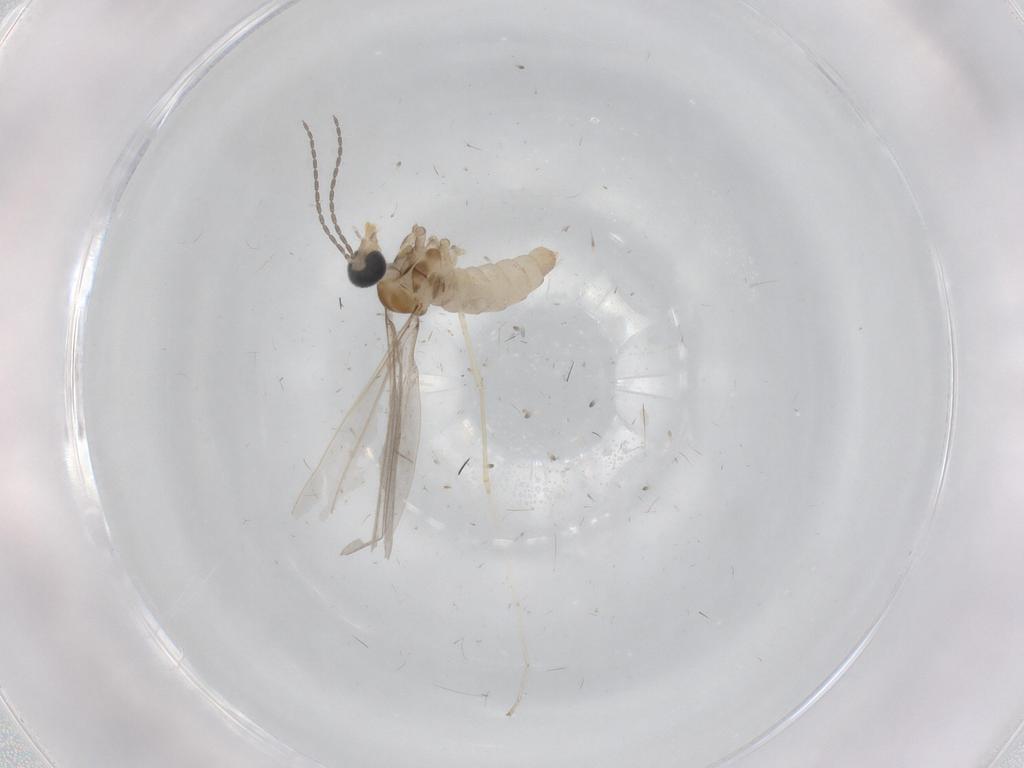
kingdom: Animalia
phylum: Arthropoda
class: Insecta
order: Diptera
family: Cecidomyiidae
